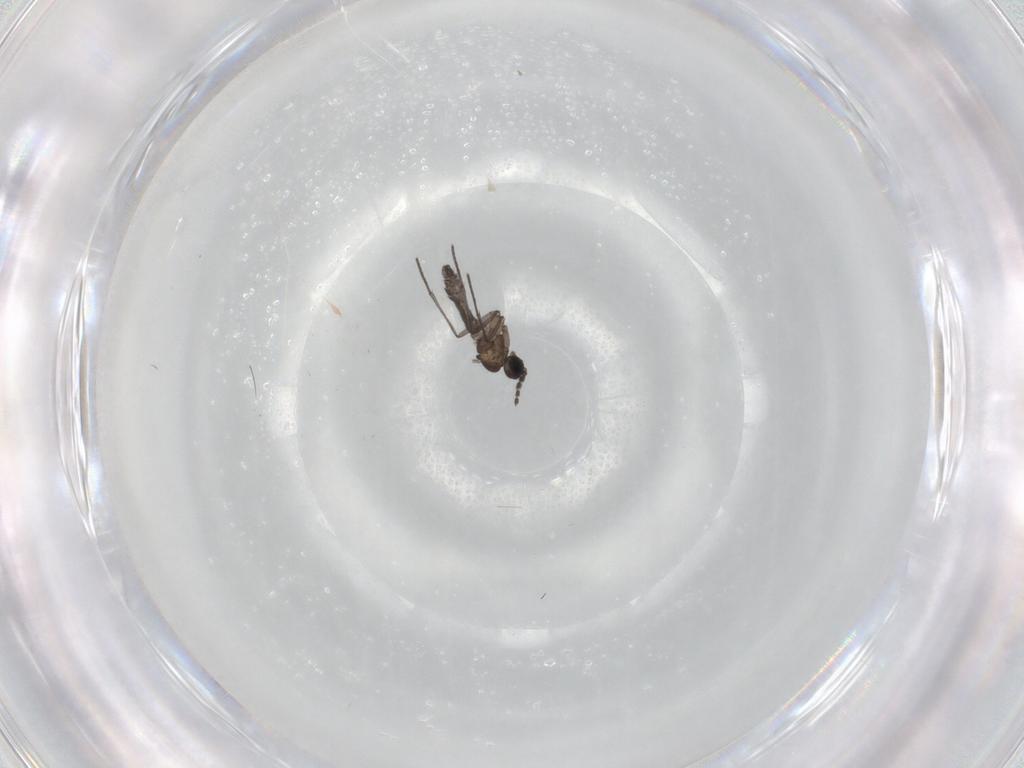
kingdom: Animalia
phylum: Arthropoda
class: Insecta
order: Diptera
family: Cecidomyiidae
